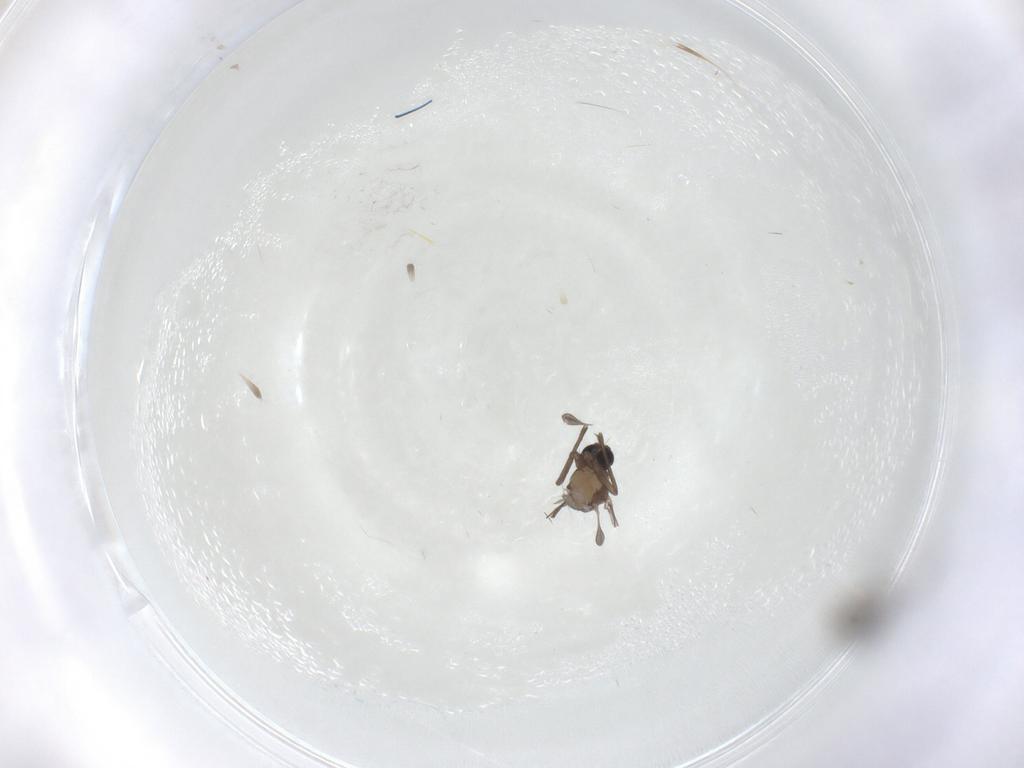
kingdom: Animalia
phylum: Arthropoda
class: Insecta
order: Diptera
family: Sciaridae
